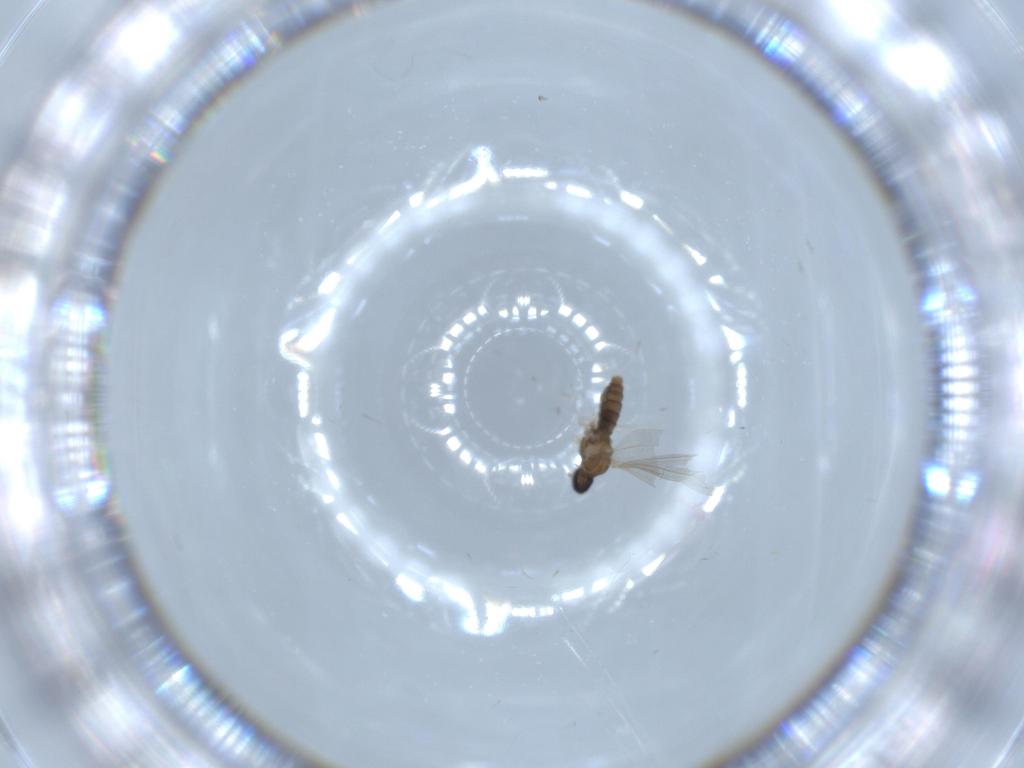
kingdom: Animalia
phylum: Arthropoda
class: Insecta
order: Diptera
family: Cecidomyiidae
